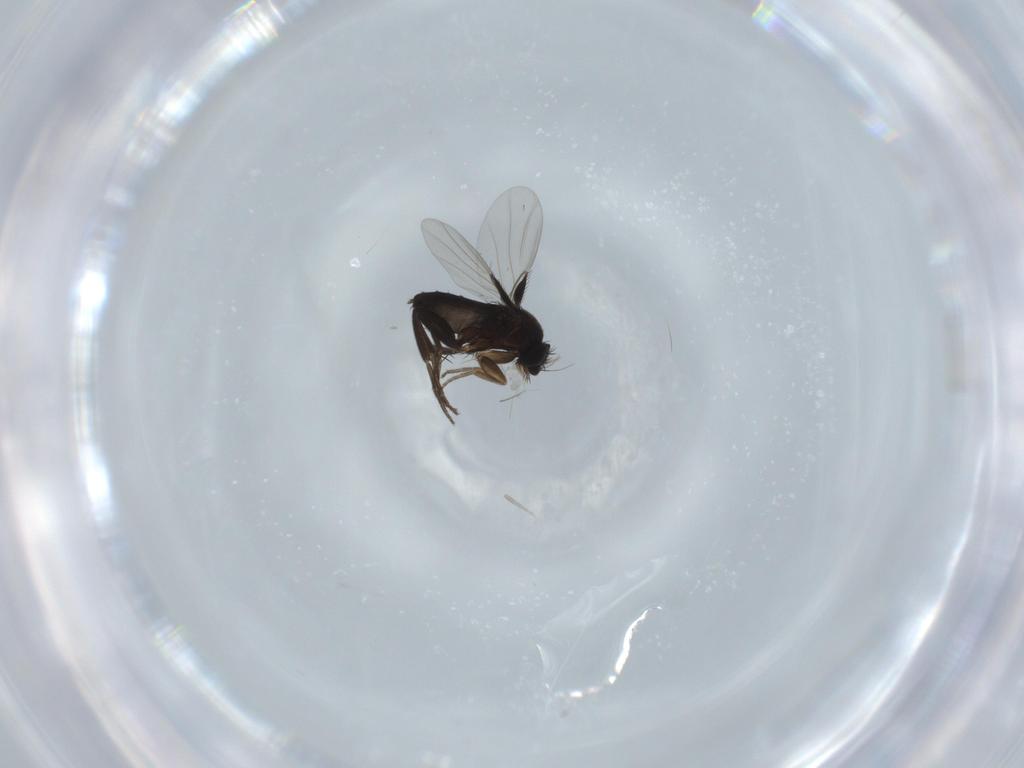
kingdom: Animalia
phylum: Arthropoda
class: Insecta
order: Diptera
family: Phoridae
